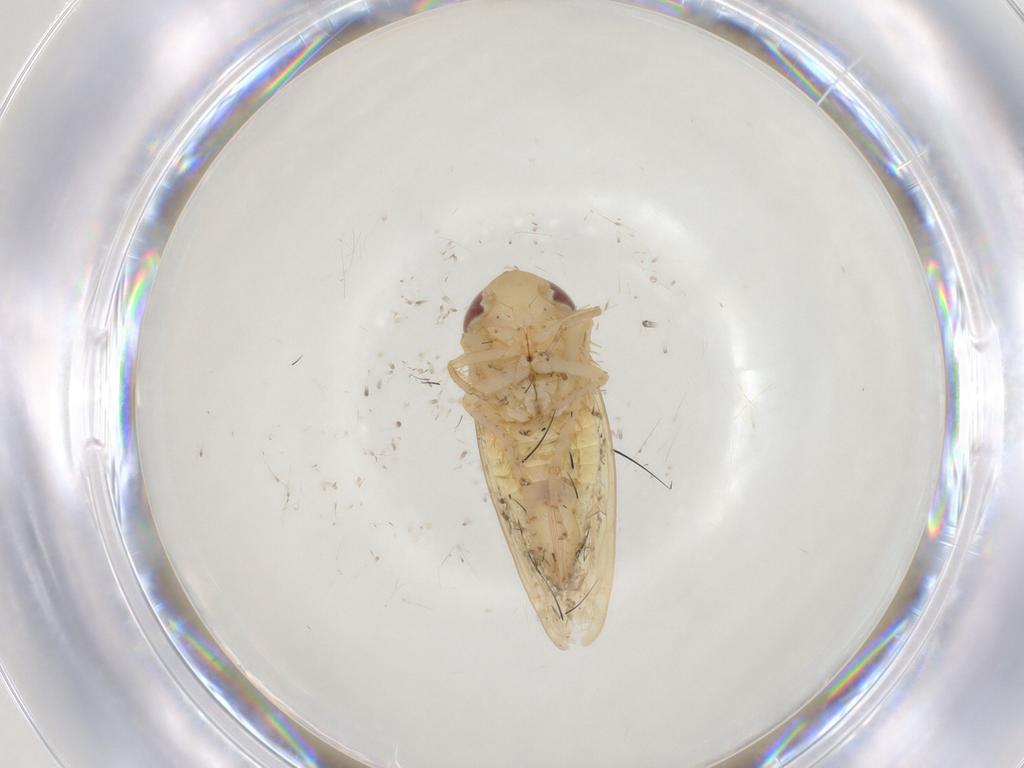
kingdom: Animalia
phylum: Arthropoda
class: Insecta
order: Hemiptera
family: Cicadellidae
